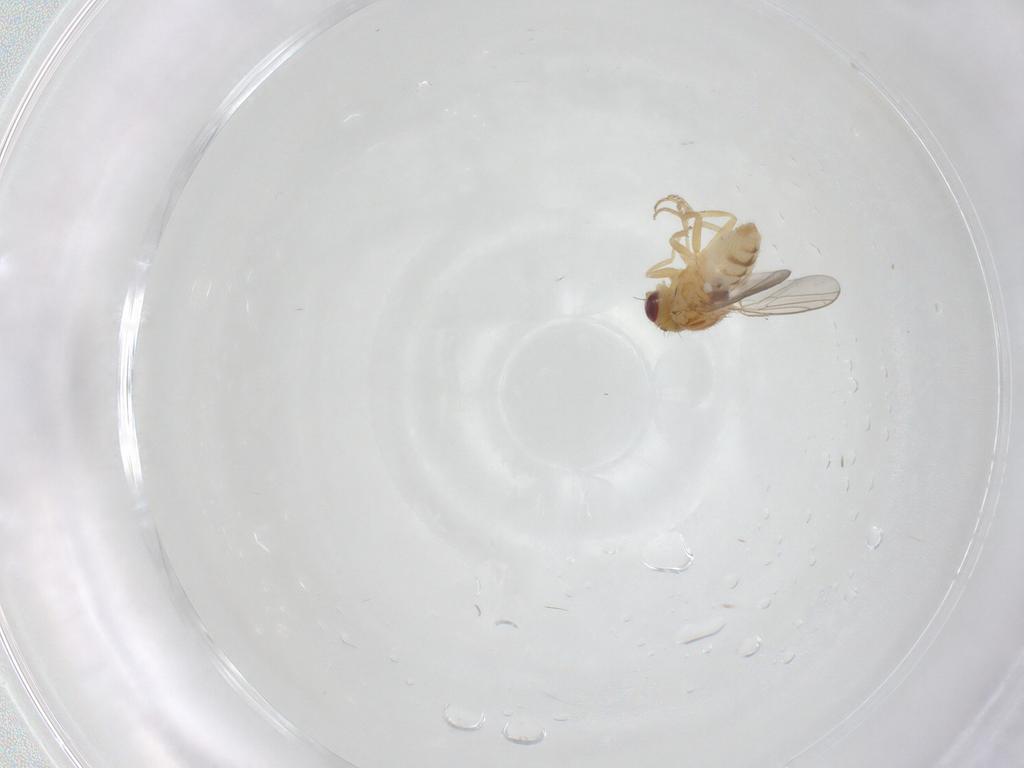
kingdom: Animalia
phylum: Arthropoda
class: Insecta
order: Diptera
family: Chloropidae
